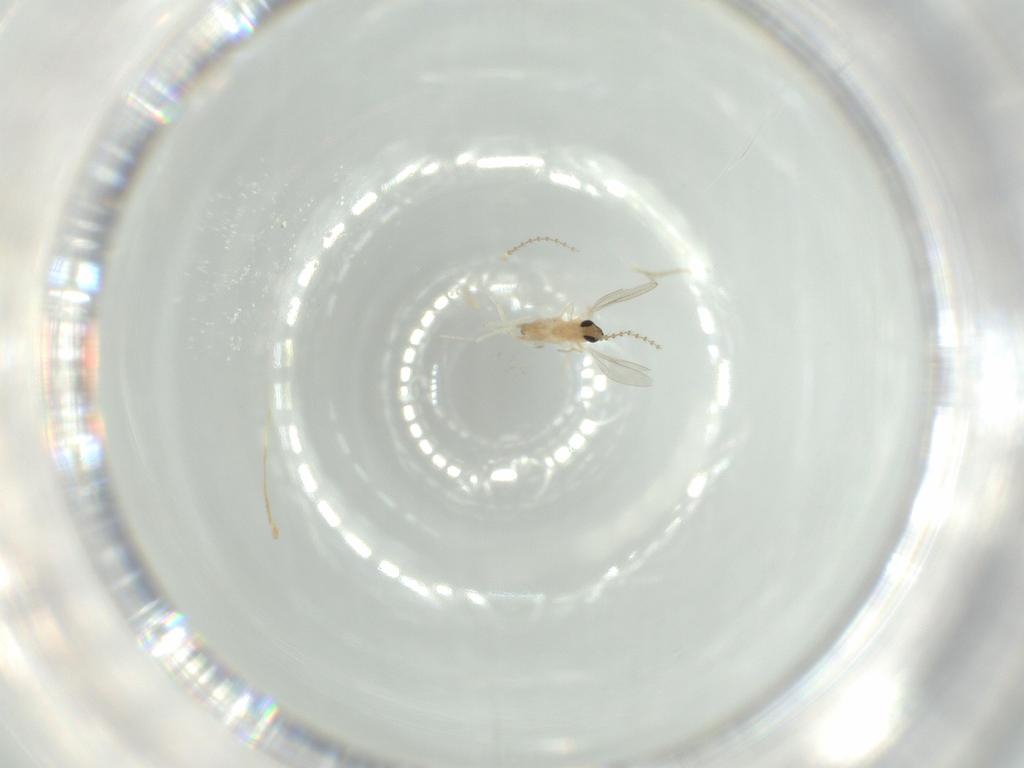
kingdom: Animalia
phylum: Arthropoda
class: Insecta
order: Diptera
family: Cecidomyiidae
